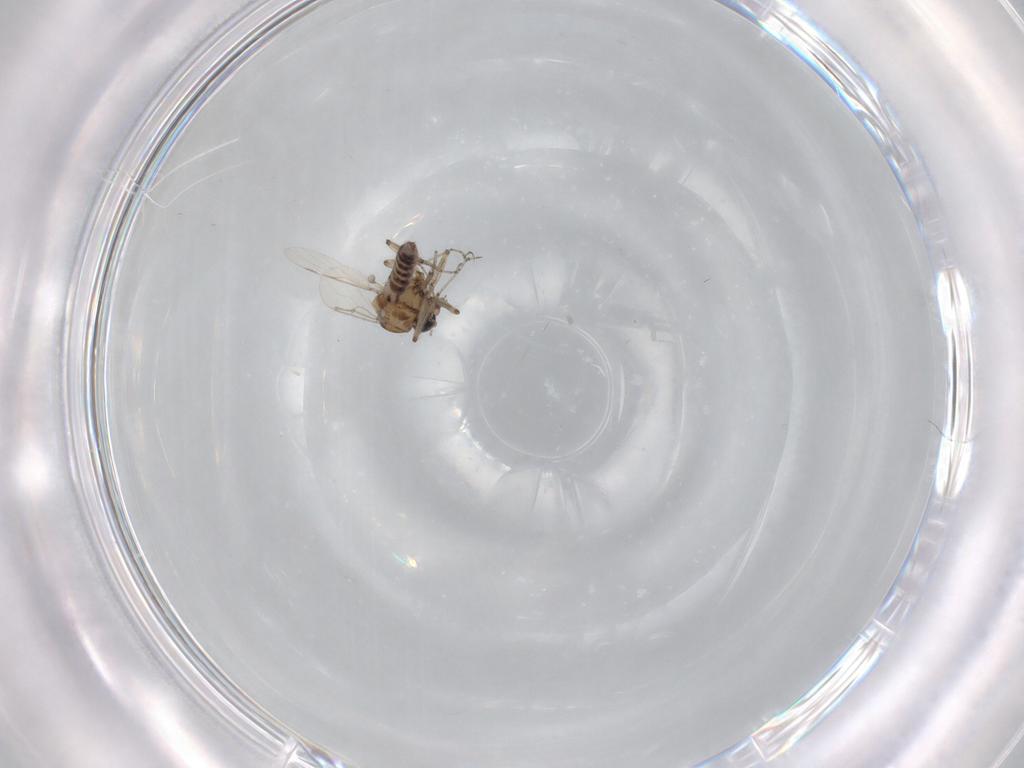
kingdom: Animalia
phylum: Arthropoda
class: Insecta
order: Diptera
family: Ceratopogonidae
